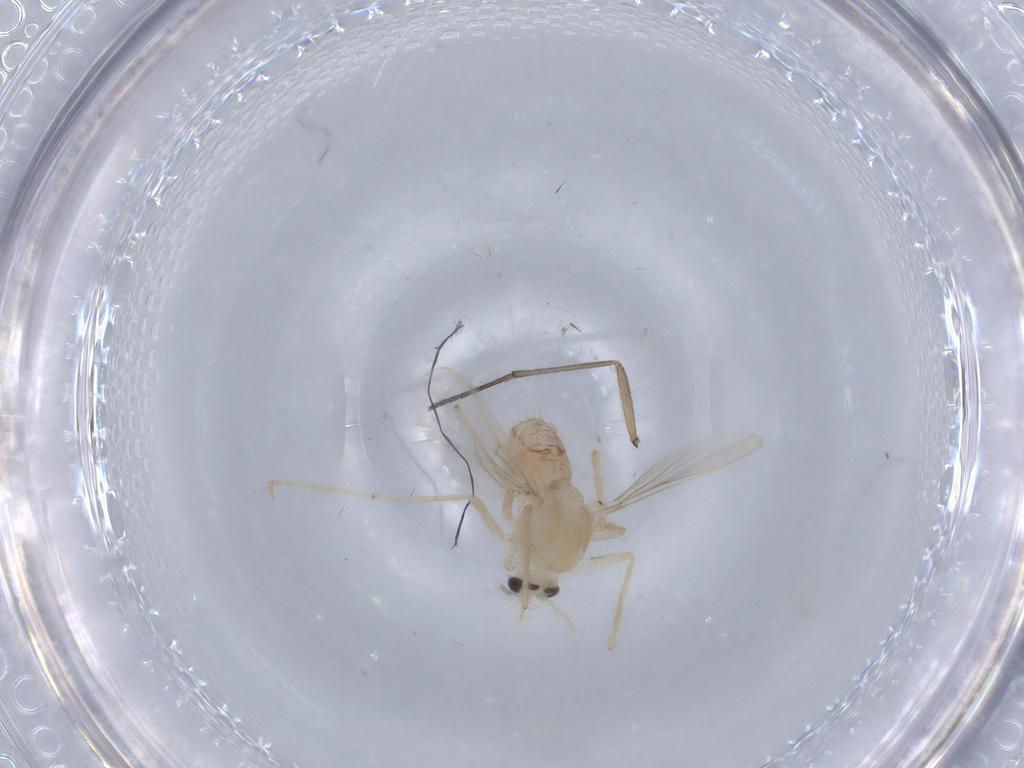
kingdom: Animalia
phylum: Arthropoda
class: Insecta
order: Diptera
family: Chironomidae
